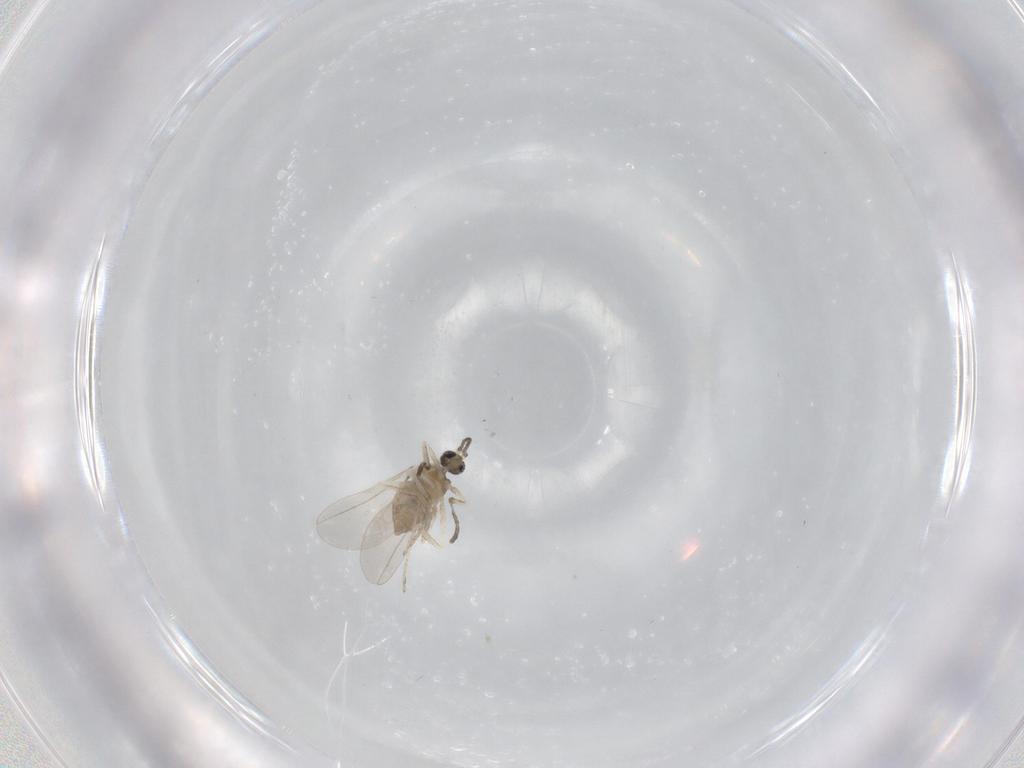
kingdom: Animalia
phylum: Arthropoda
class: Insecta
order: Diptera
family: Cecidomyiidae
